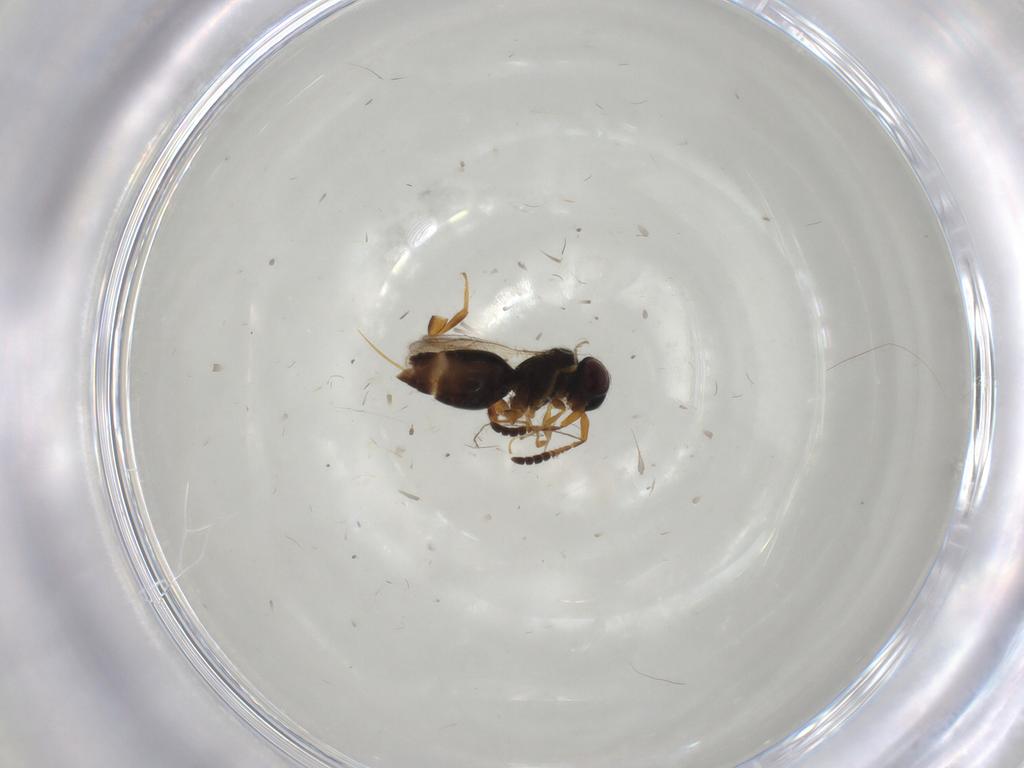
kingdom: Animalia
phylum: Arthropoda
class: Insecta
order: Hymenoptera
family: Ceraphronidae
